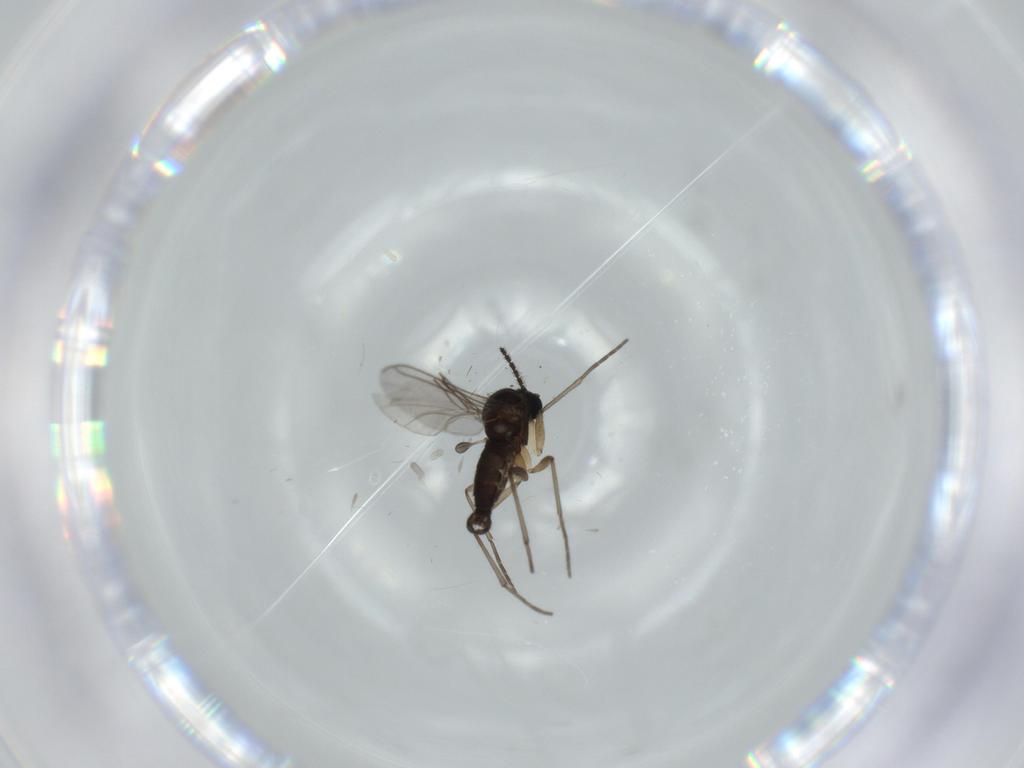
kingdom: Animalia
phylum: Arthropoda
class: Insecta
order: Diptera
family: Sciaridae
